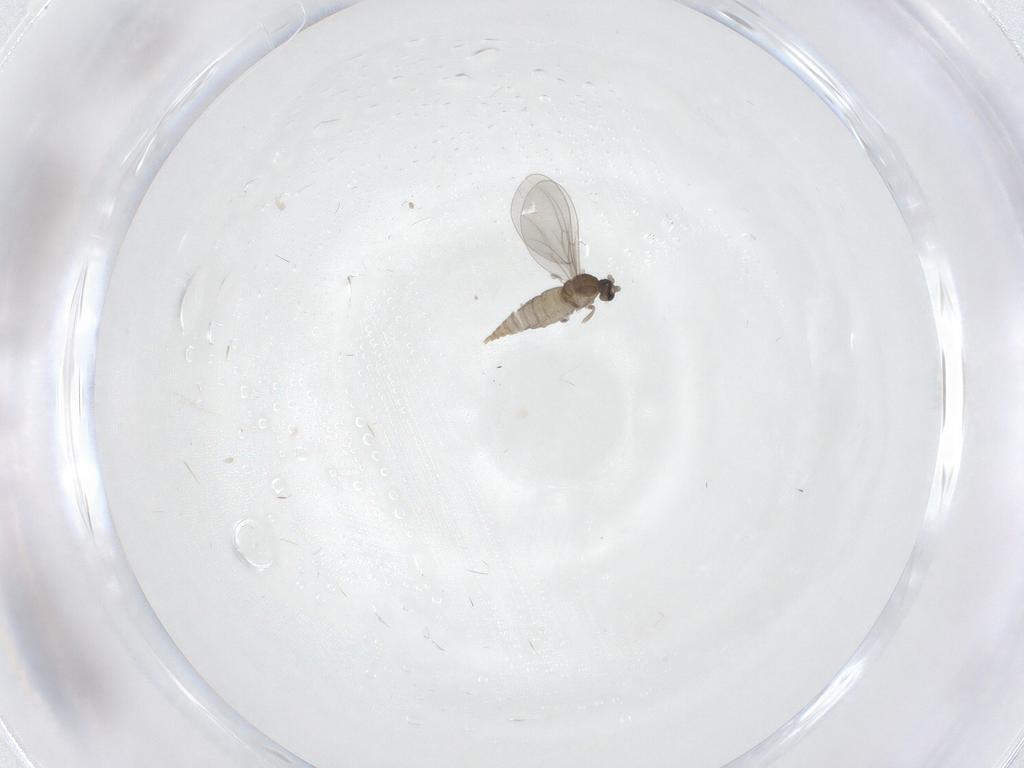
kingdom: Animalia
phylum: Arthropoda
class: Insecta
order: Diptera
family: Cecidomyiidae
